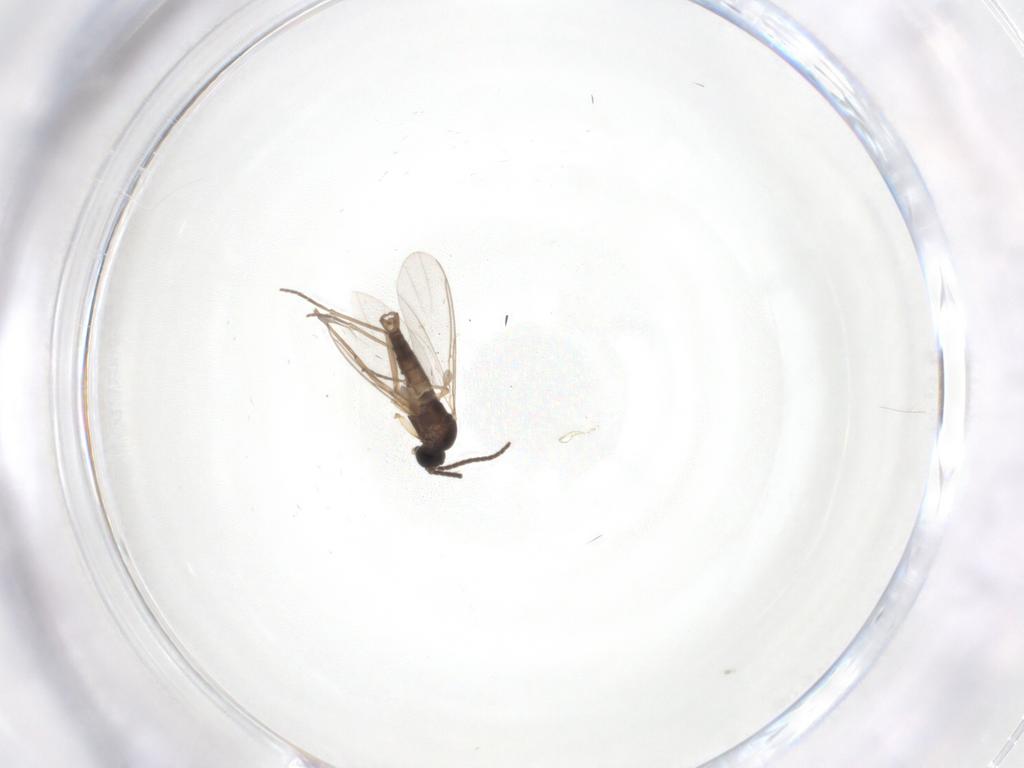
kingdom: Animalia
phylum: Arthropoda
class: Insecta
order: Diptera
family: Sciaridae
